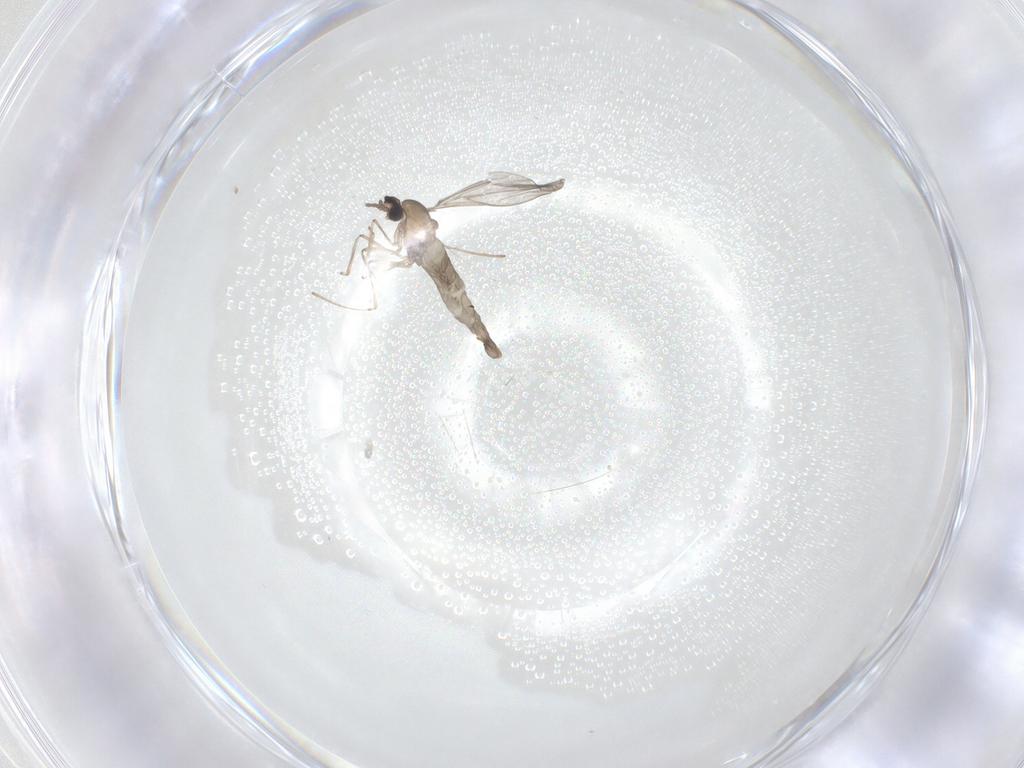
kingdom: Animalia
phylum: Arthropoda
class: Insecta
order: Diptera
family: Cecidomyiidae
